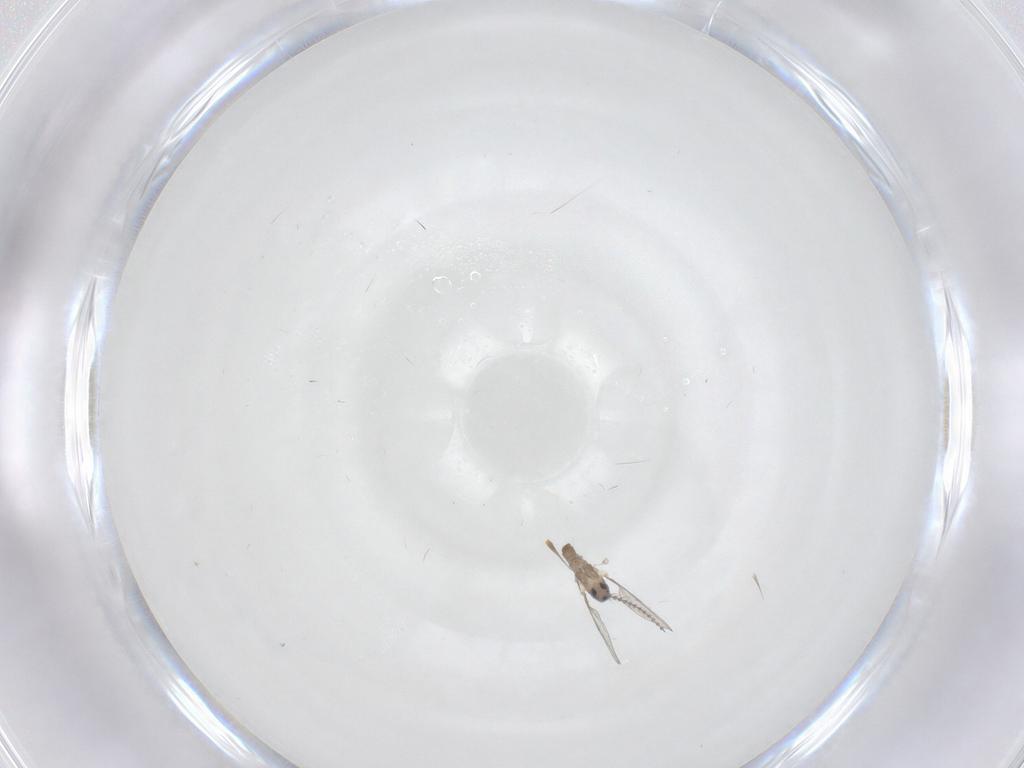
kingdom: Animalia
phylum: Arthropoda
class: Insecta
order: Diptera
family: Cecidomyiidae
